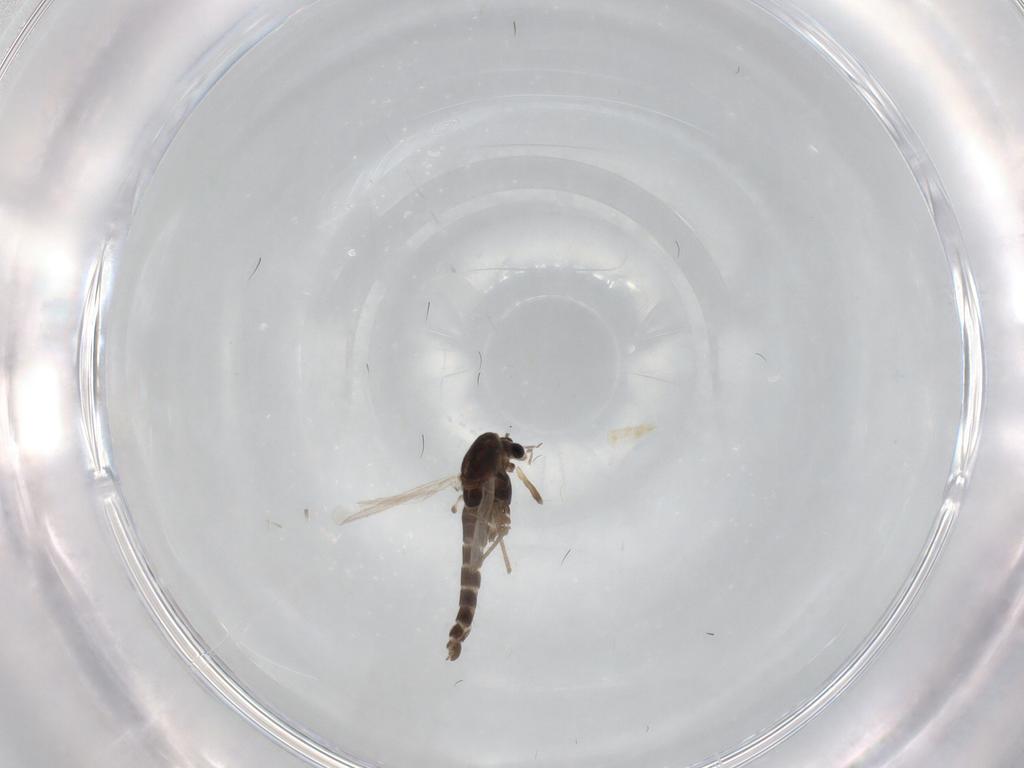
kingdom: Animalia
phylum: Arthropoda
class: Insecta
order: Diptera
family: Chironomidae
